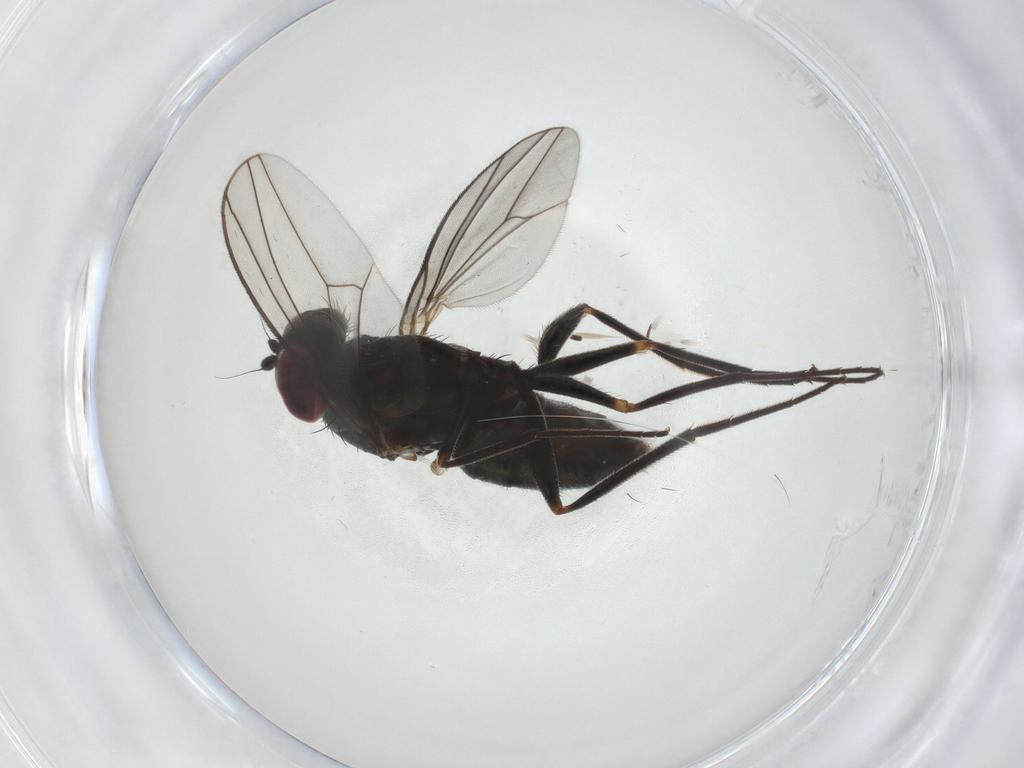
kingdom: Animalia
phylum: Arthropoda
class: Insecta
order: Diptera
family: Dolichopodidae
